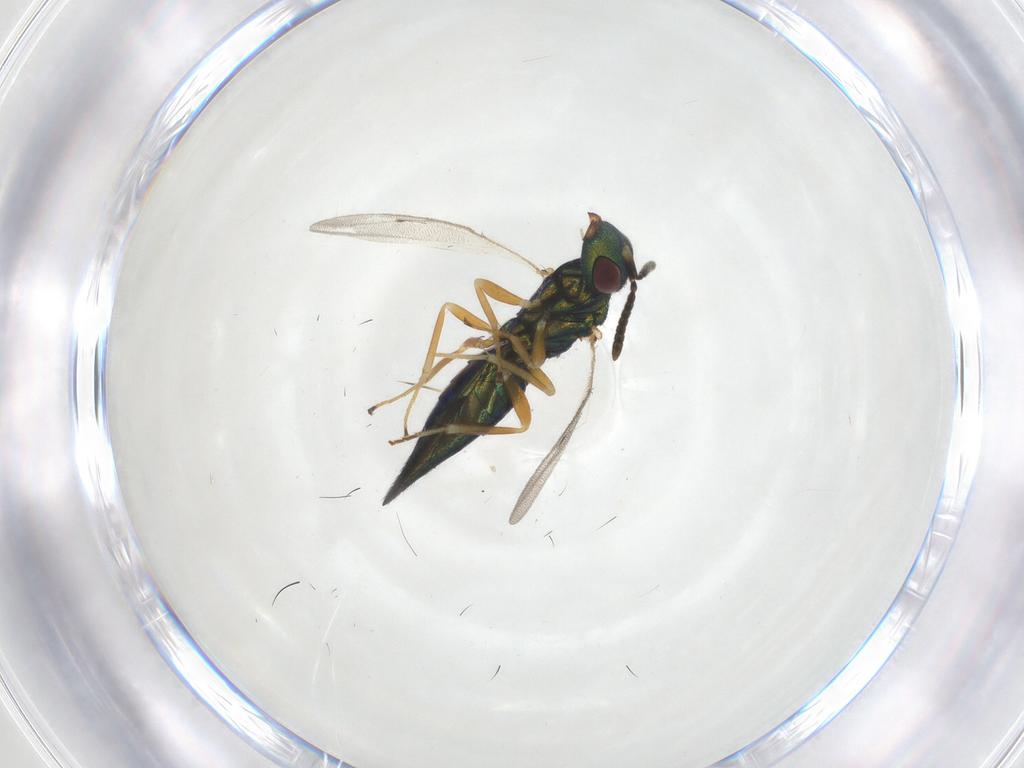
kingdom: Animalia
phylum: Arthropoda
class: Insecta
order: Hymenoptera
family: Pteromalidae
